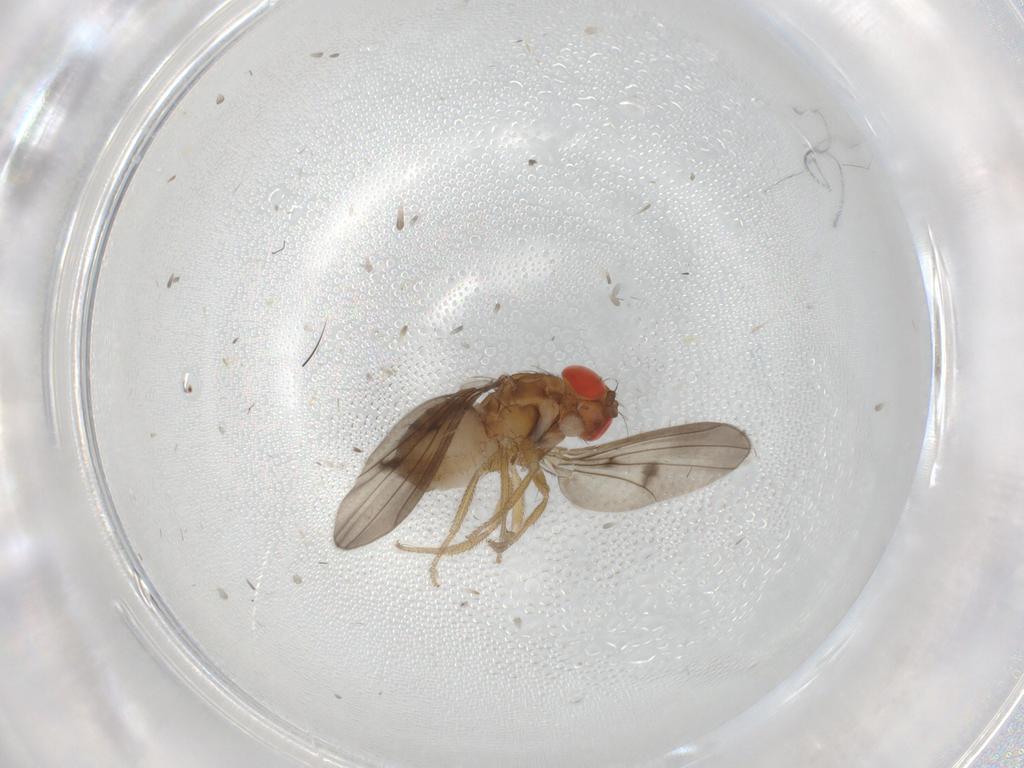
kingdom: Animalia
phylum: Arthropoda
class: Insecta
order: Diptera
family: Drosophilidae
